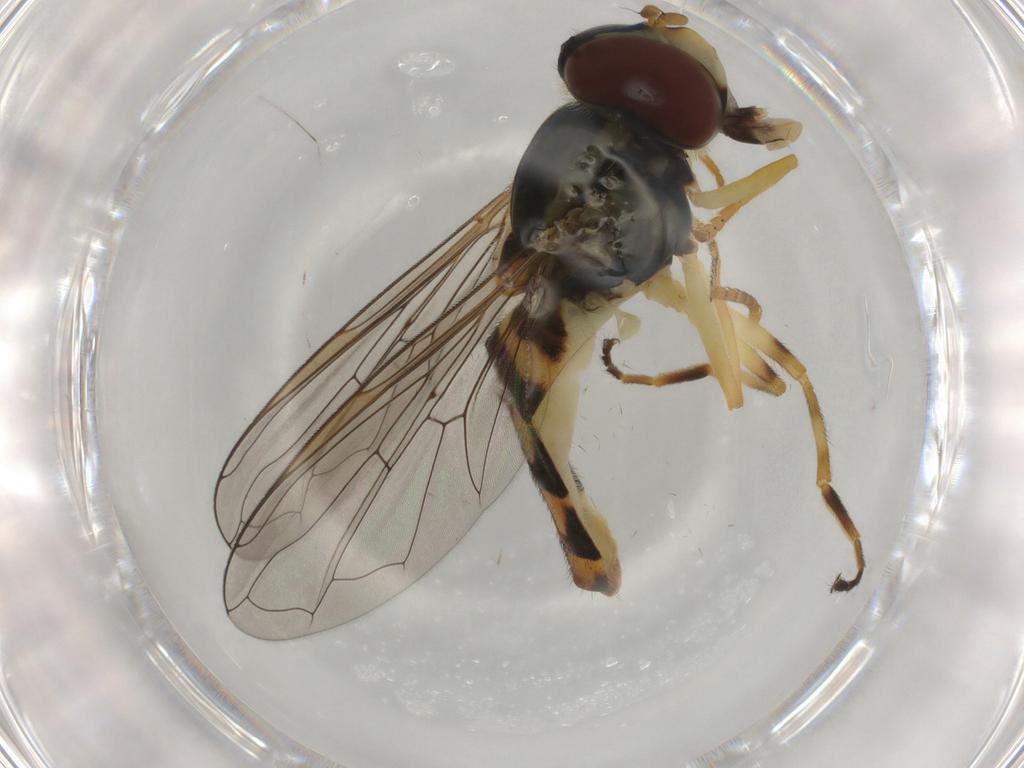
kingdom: Animalia
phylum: Arthropoda
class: Insecta
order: Diptera
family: Syrphidae
